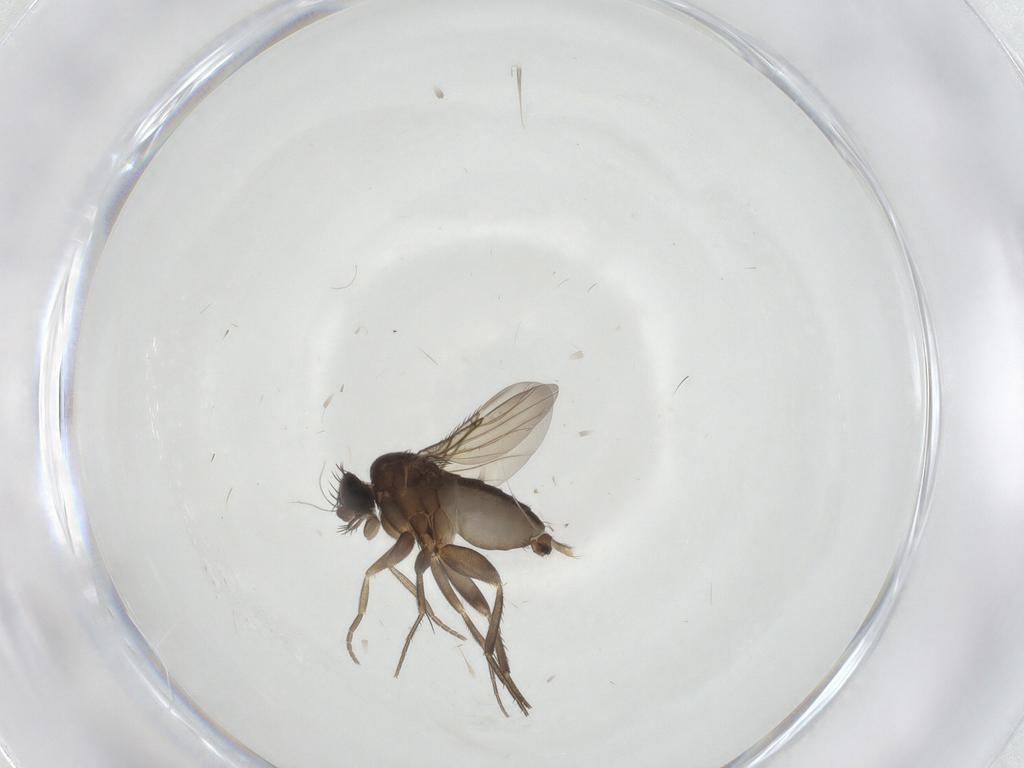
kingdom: Animalia
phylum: Arthropoda
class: Insecta
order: Diptera
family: Phoridae
